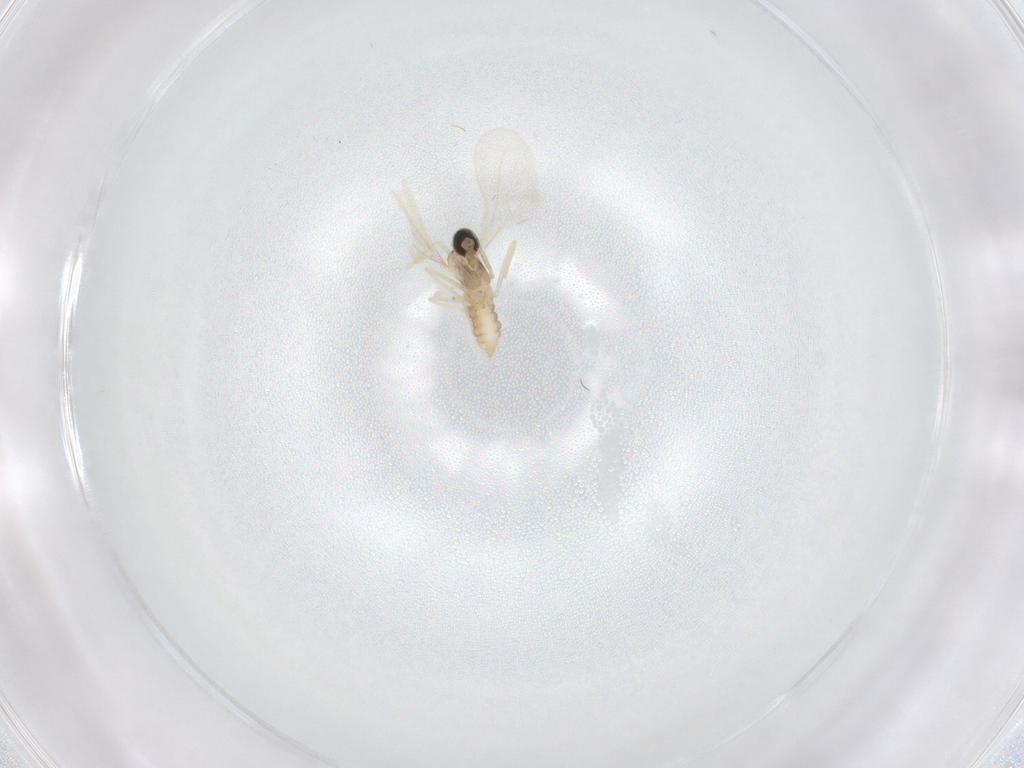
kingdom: Animalia
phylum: Arthropoda
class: Insecta
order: Diptera
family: Cecidomyiidae
